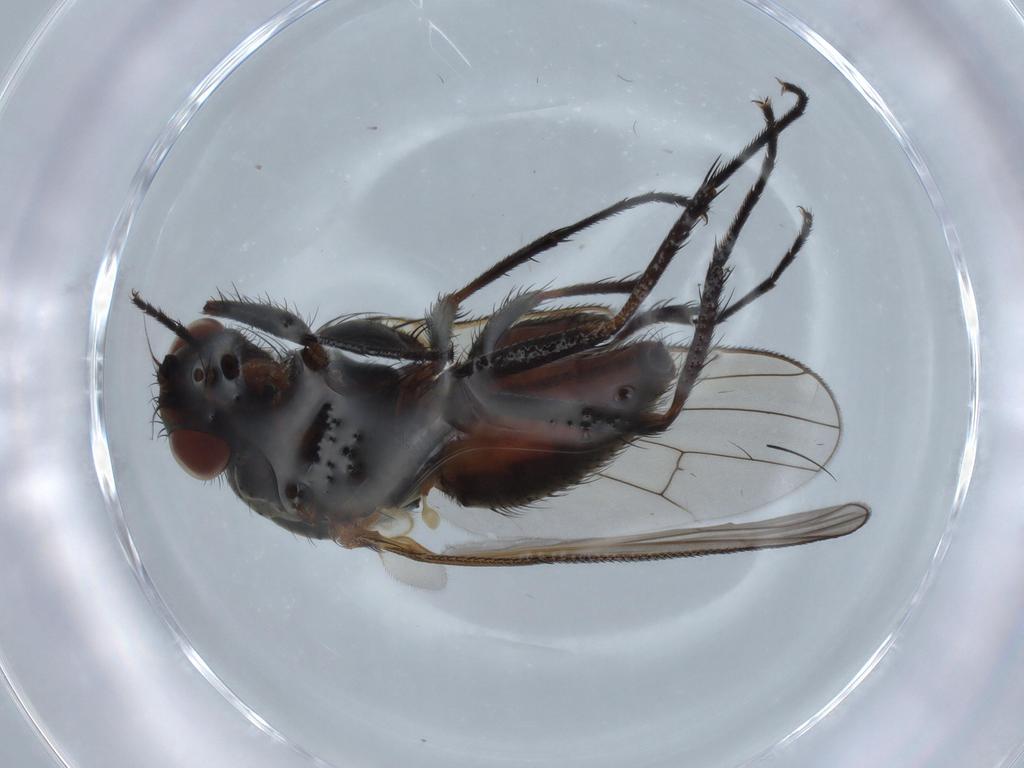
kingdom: Animalia
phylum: Arthropoda
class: Insecta
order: Diptera
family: Anthomyiidae
